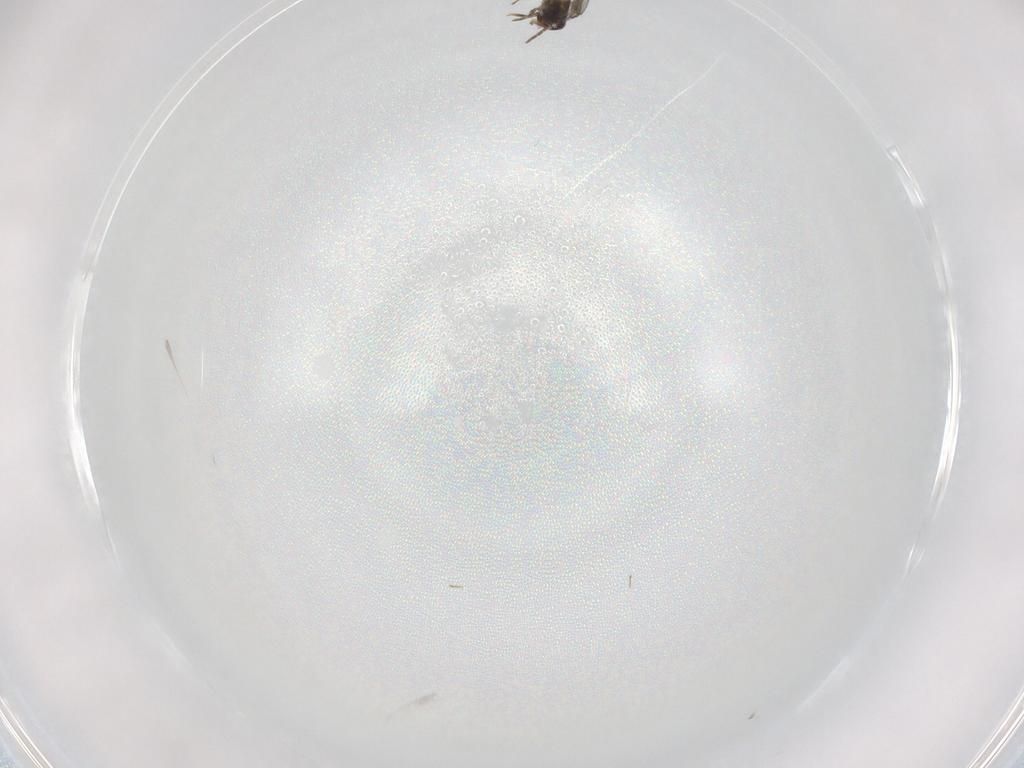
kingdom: Animalia
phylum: Arthropoda
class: Insecta
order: Hymenoptera
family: Aphelinidae
